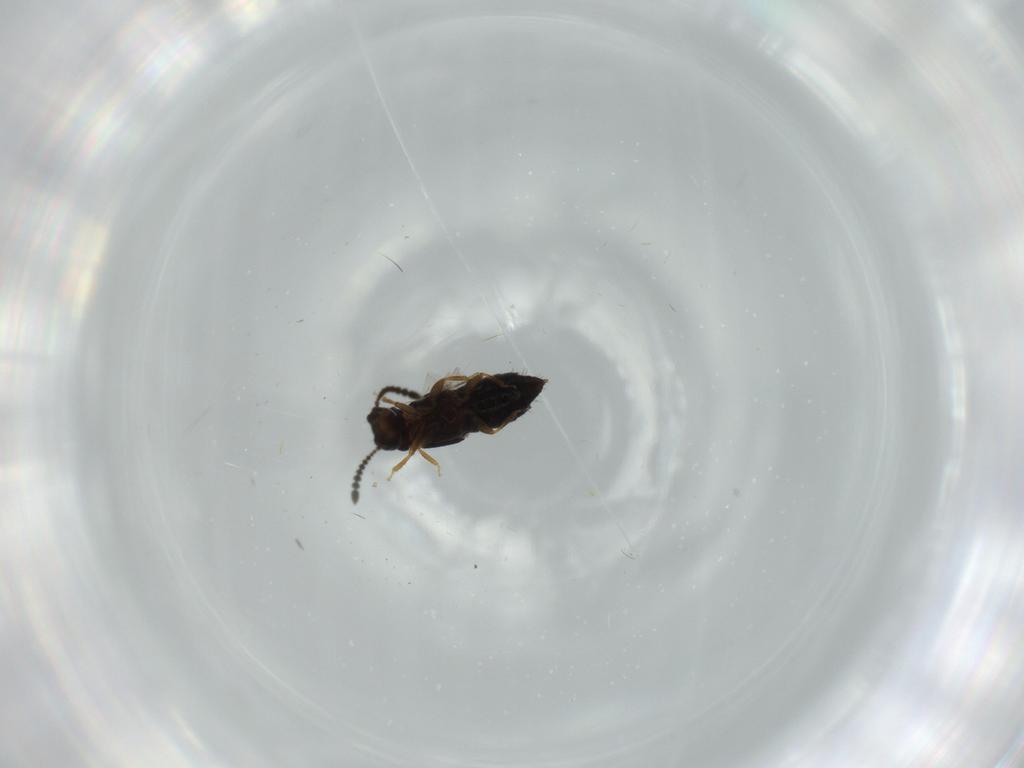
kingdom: Animalia
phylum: Arthropoda
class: Insecta
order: Coleoptera
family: Staphylinidae
